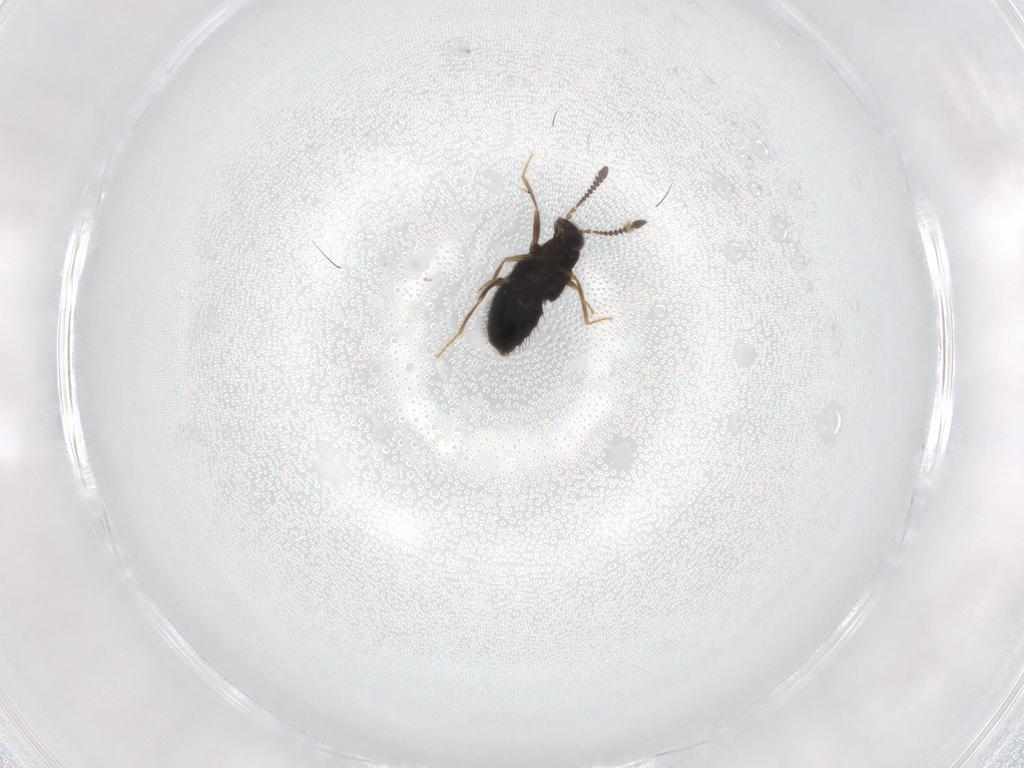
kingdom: Animalia
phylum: Arthropoda
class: Insecta
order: Coleoptera
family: Staphylinidae
